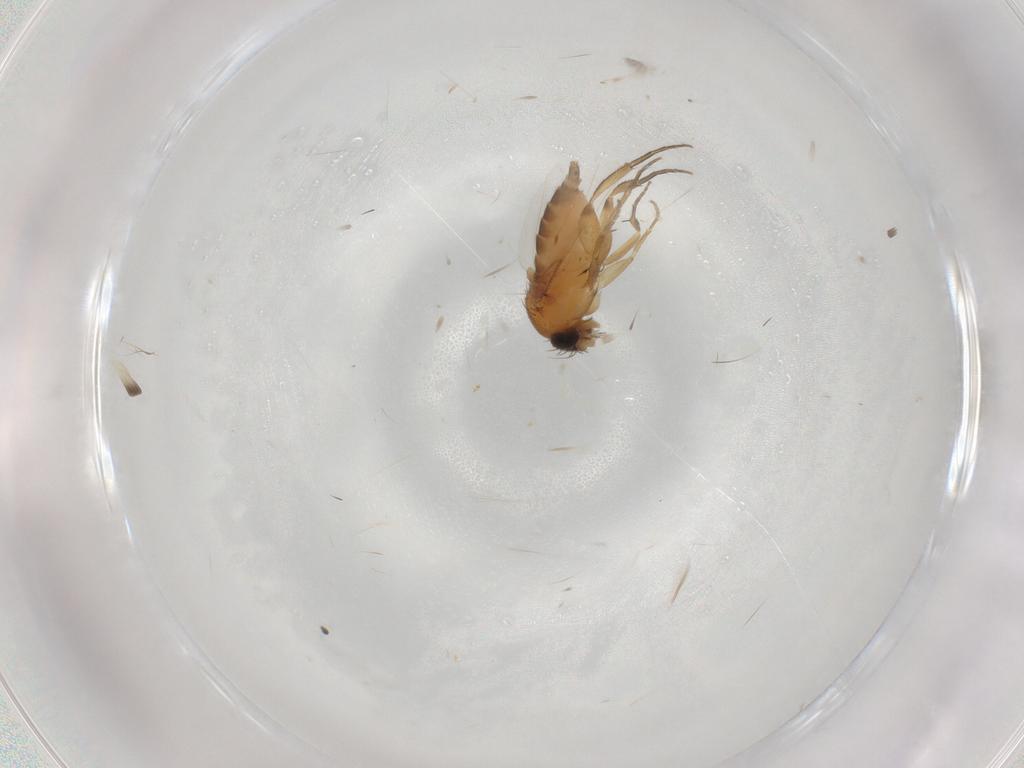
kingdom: Animalia
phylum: Arthropoda
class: Insecta
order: Diptera
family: Phoridae
